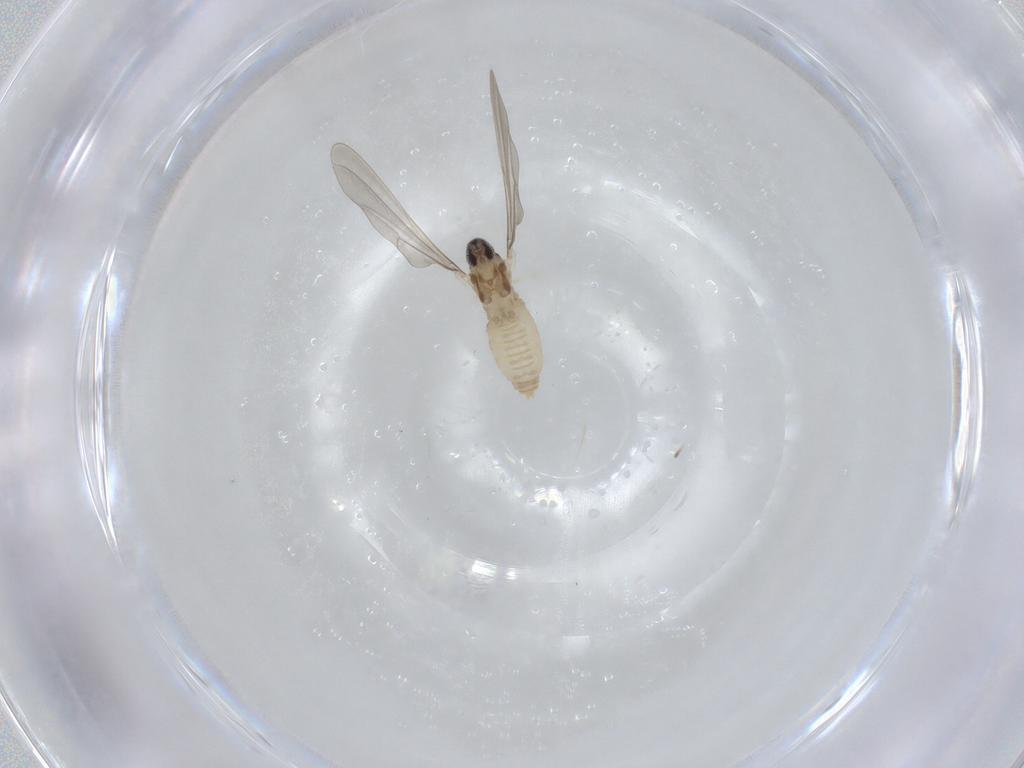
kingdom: Animalia
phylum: Arthropoda
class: Insecta
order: Diptera
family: Ceratopogonidae
